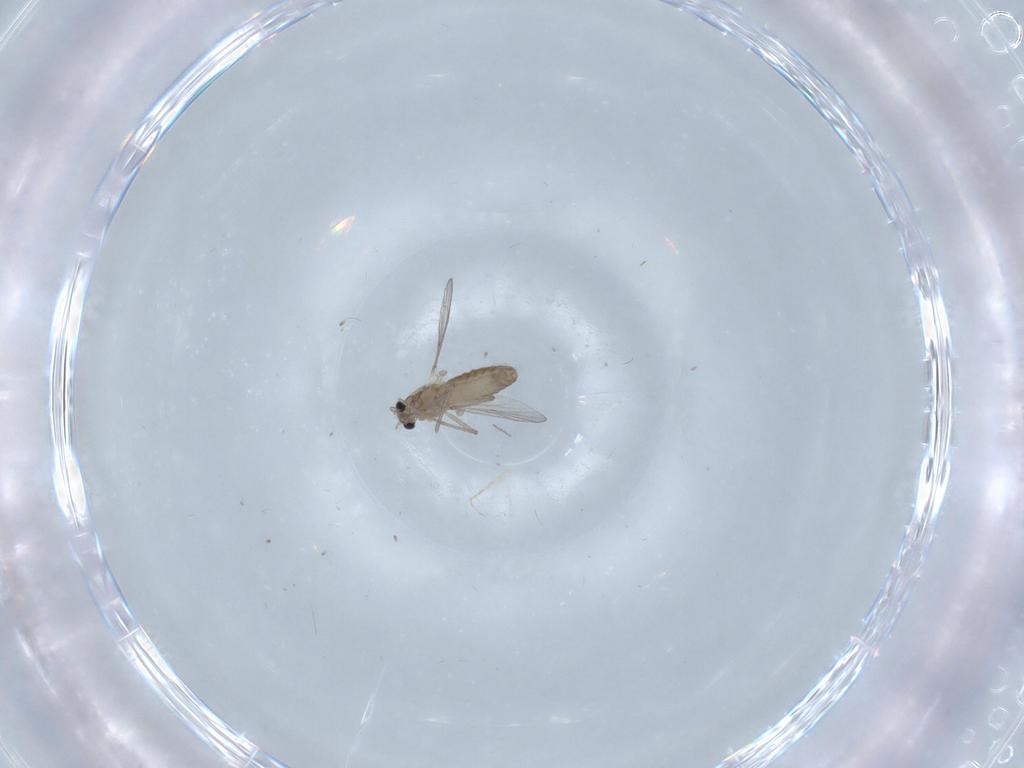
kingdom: Animalia
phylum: Arthropoda
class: Insecta
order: Diptera
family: Chironomidae
